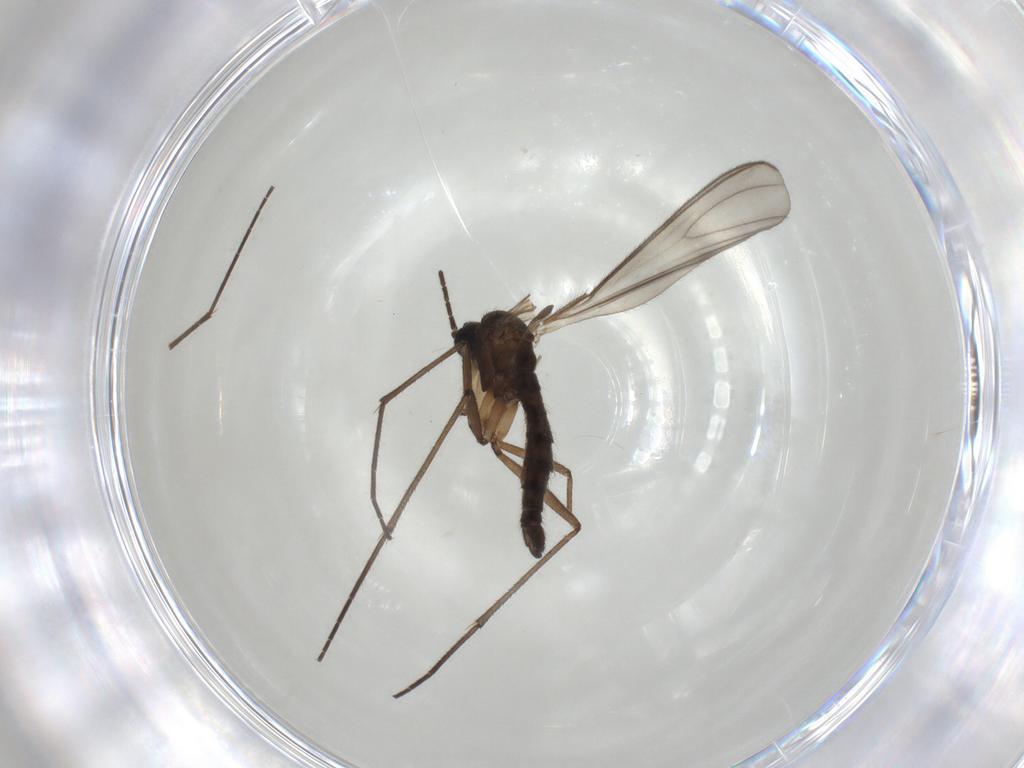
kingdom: Animalia
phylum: Arthropoda
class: Insecta
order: Diptera
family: Sciaridae
